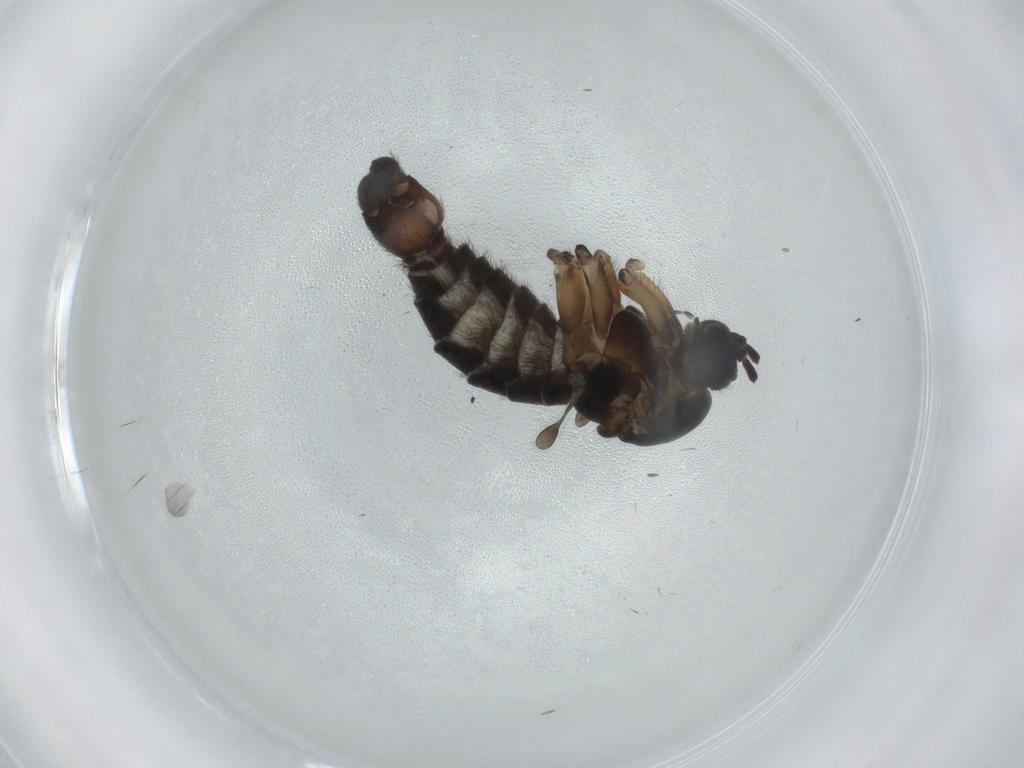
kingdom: Animalia
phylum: Arthropoda
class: Insecta
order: Diptera
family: Sciaridae
